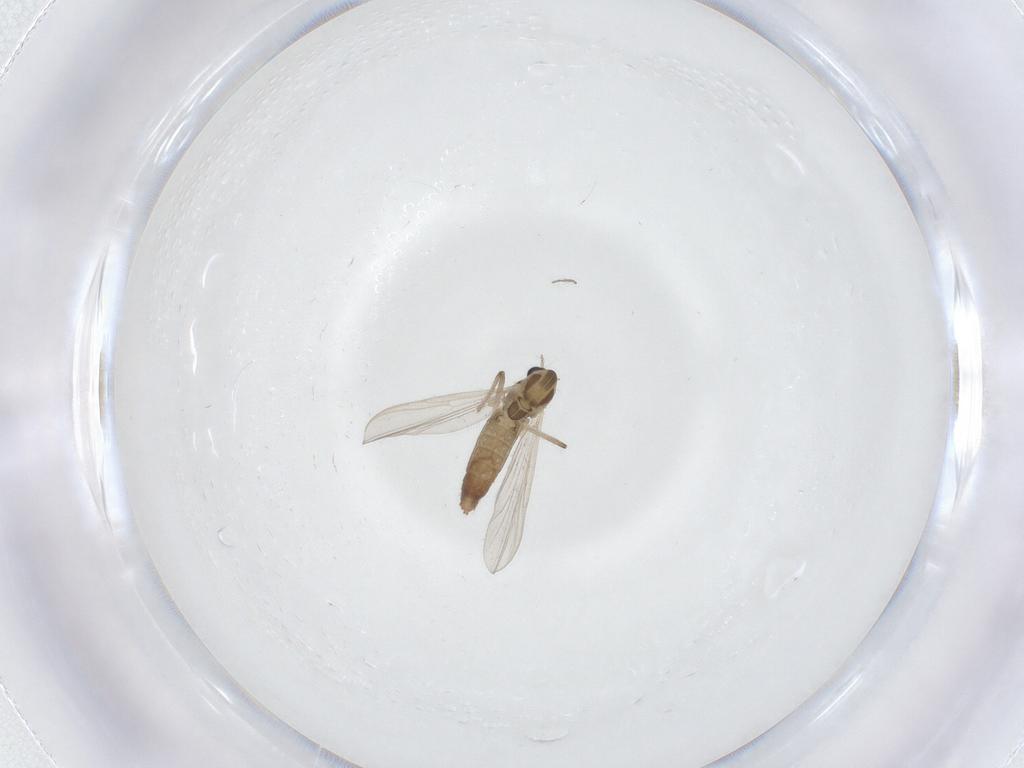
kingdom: Animalia
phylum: Arthropoda
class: Insecta
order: Diptera
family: Chironomidae
